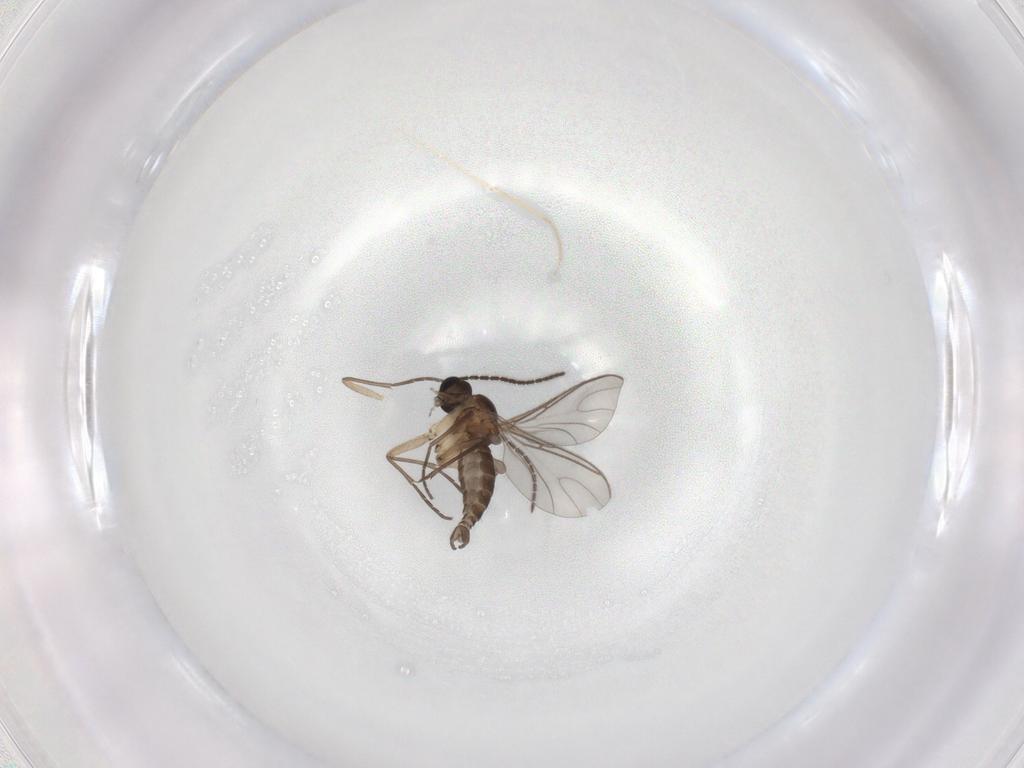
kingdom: Animalia
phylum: Arthropoda
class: Insecta
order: Diptera
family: Sciaridae
